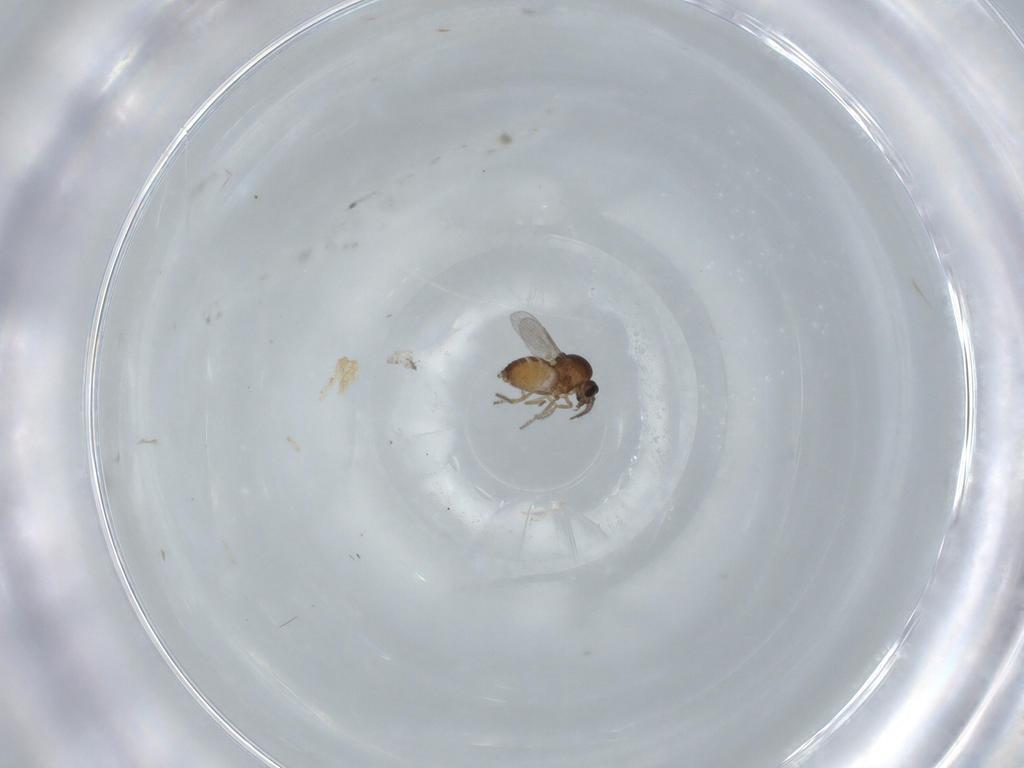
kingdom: Animalia
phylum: Arthropoda
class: Insecta
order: Diptera
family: Ceratopogonidae
